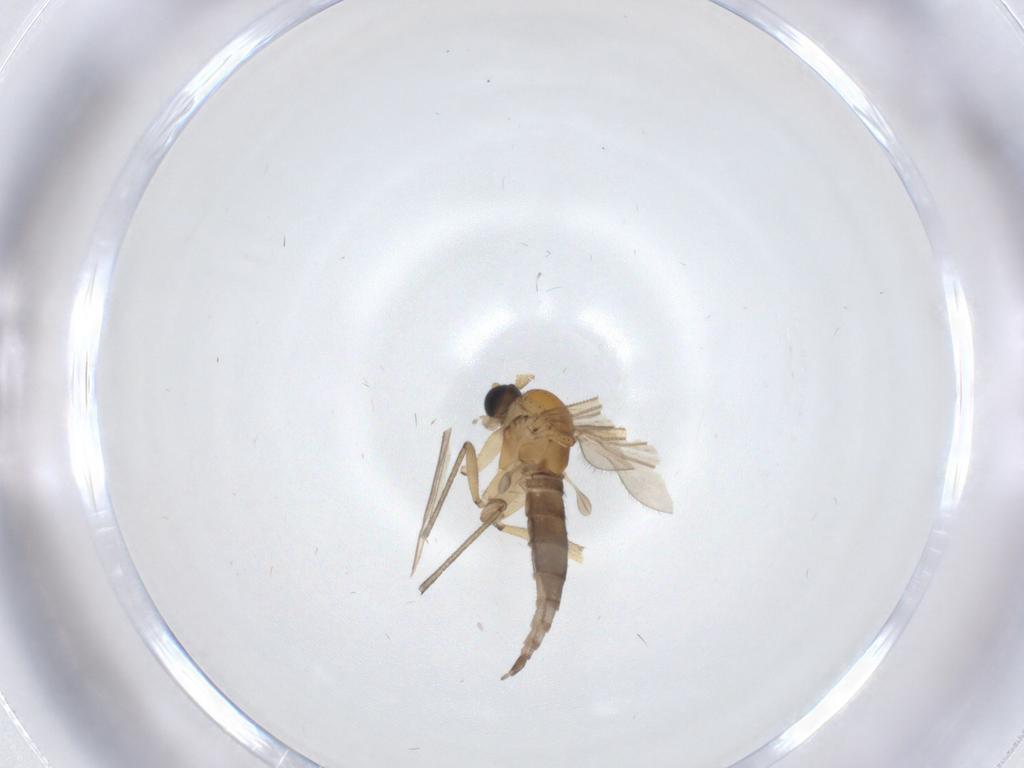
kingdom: Animalia
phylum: Arthropoda
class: Insecta
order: Diptera
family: Sciaridae
